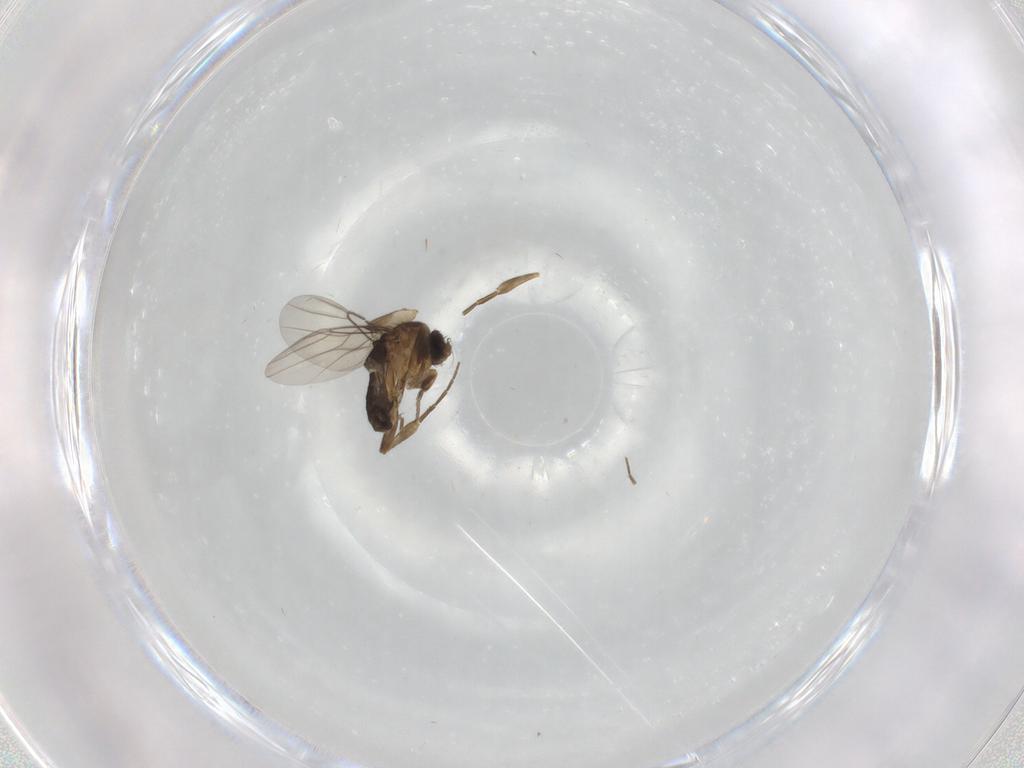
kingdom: Animalia
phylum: Arthropoda
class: Insecta
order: Diptera
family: Phoridae
